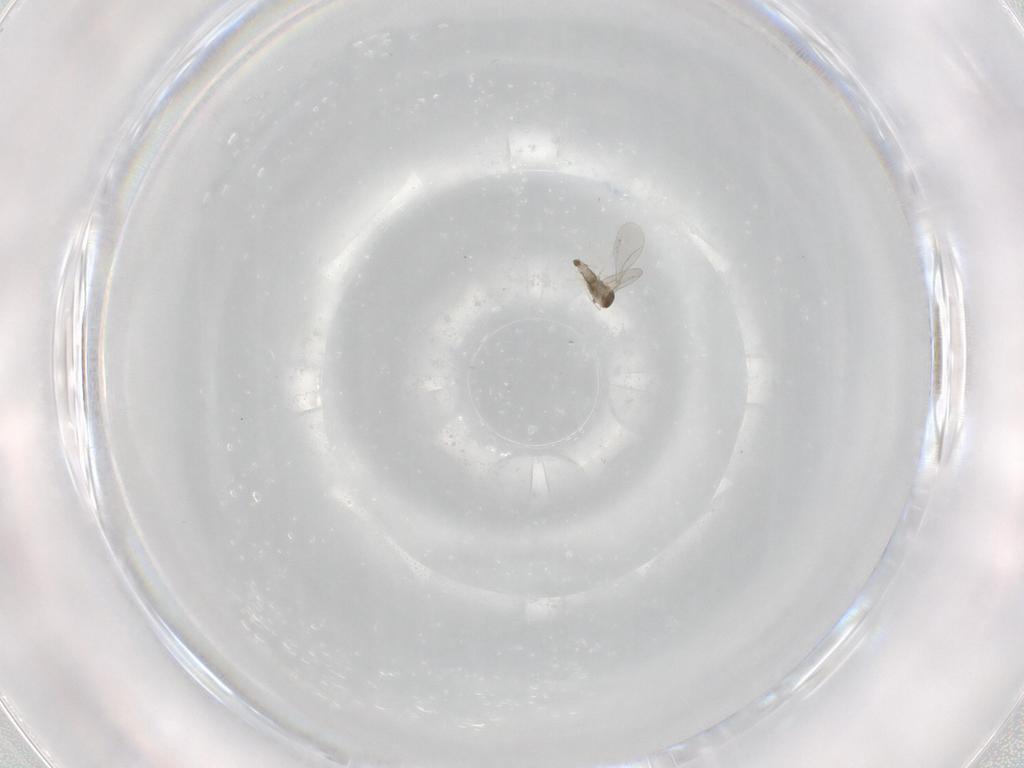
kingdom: Animalia
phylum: Arthropoda
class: Insecta
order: Diptera
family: Cecidomyiidae
